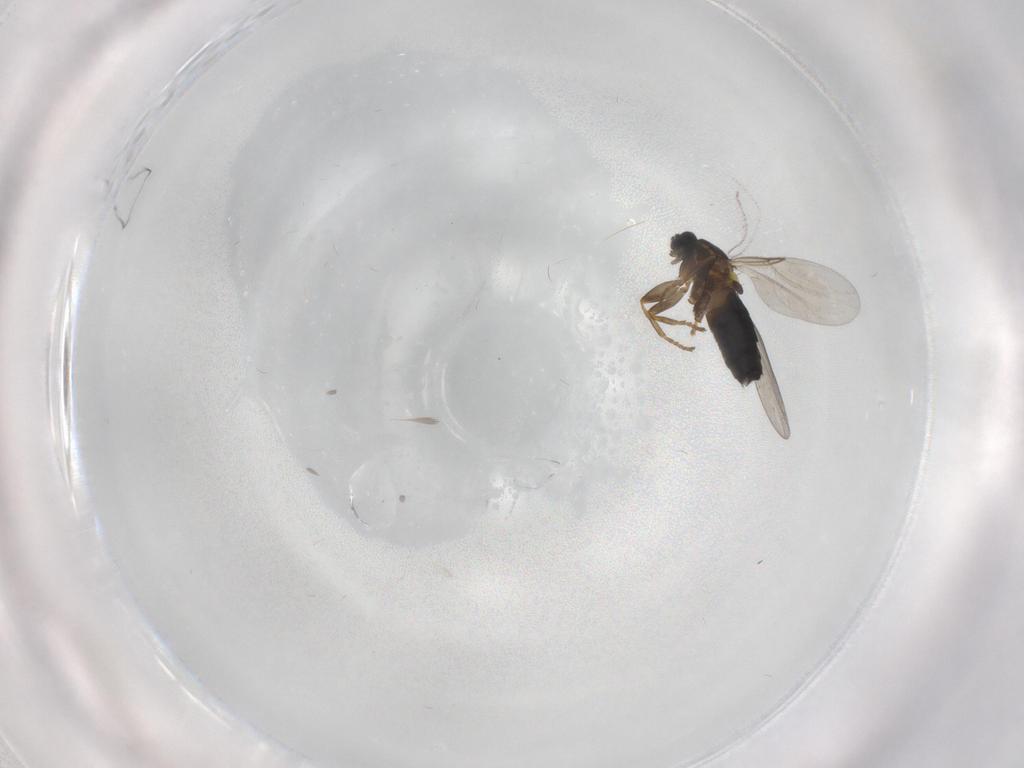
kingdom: Animalia
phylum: Arthropoda
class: Insecta
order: Diptera
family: Scatopsidae
